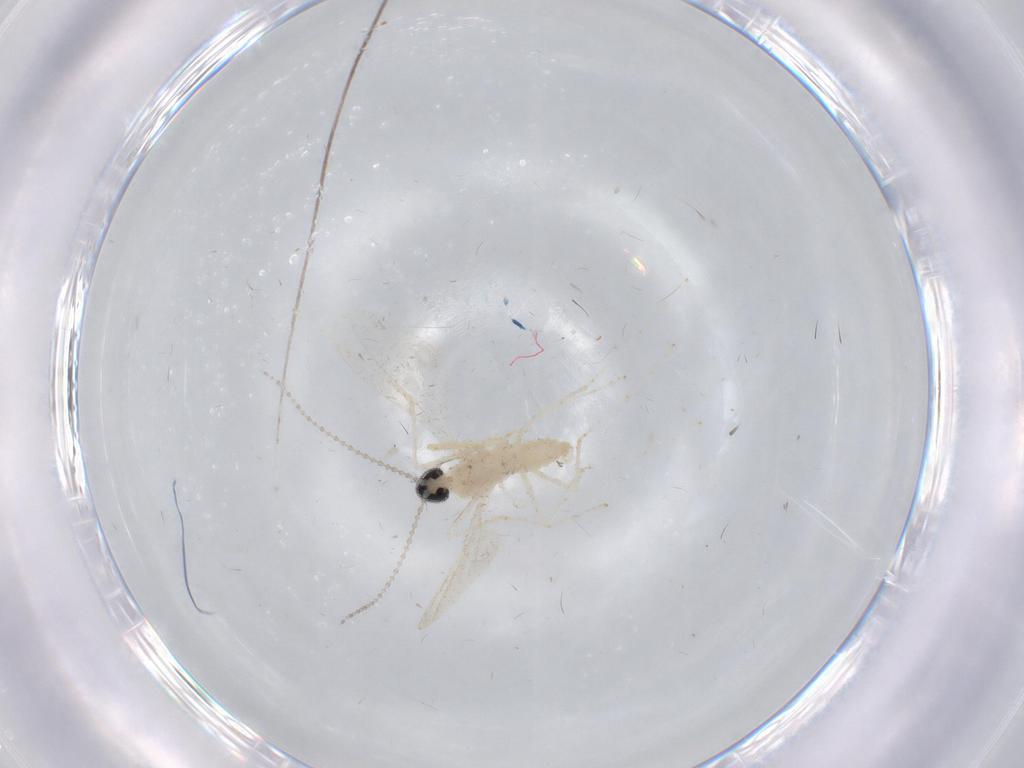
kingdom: Animalia
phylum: Arthropoda
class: Insecta
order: Diptera
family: Cecidomyiidae
